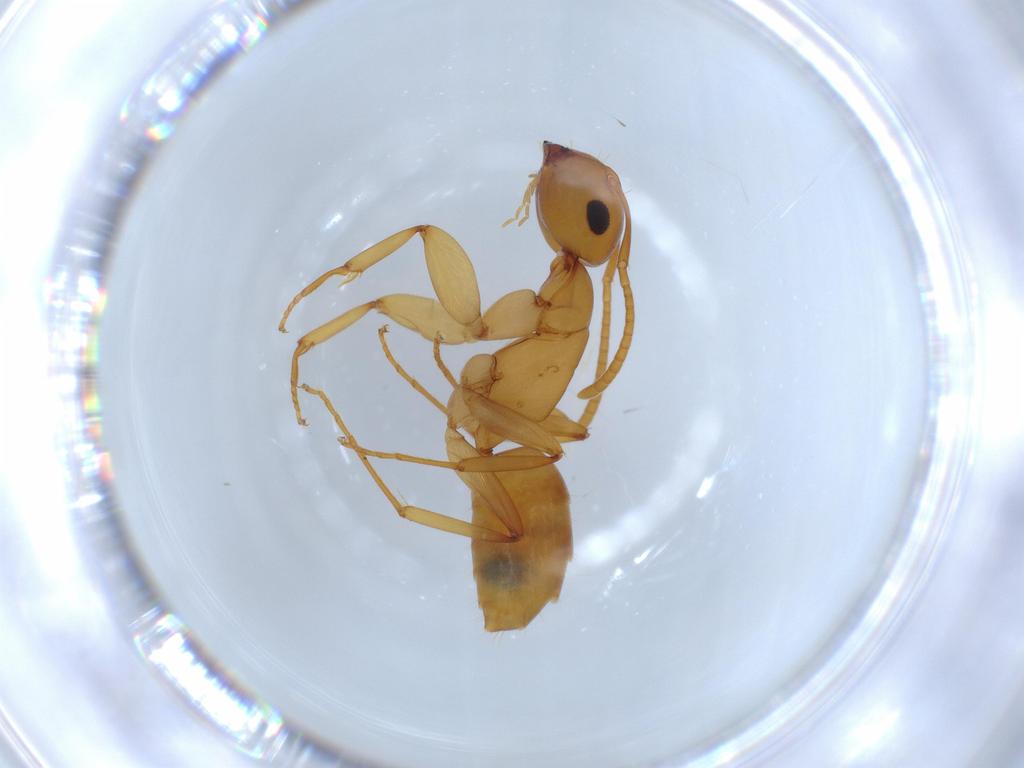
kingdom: Animalia
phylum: Arthropoda
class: Insecta
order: Hymenoptera
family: Formicidae
